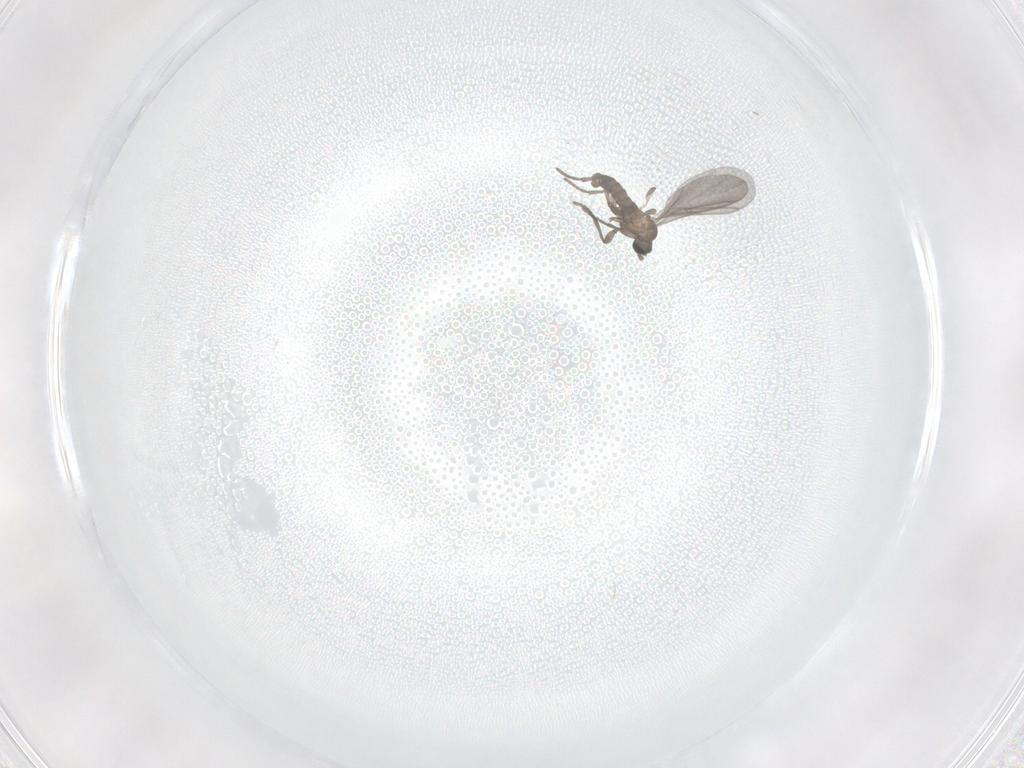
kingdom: Animalia
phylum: Arthropoda
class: Insecta
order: Diptera
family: Sciaridae
